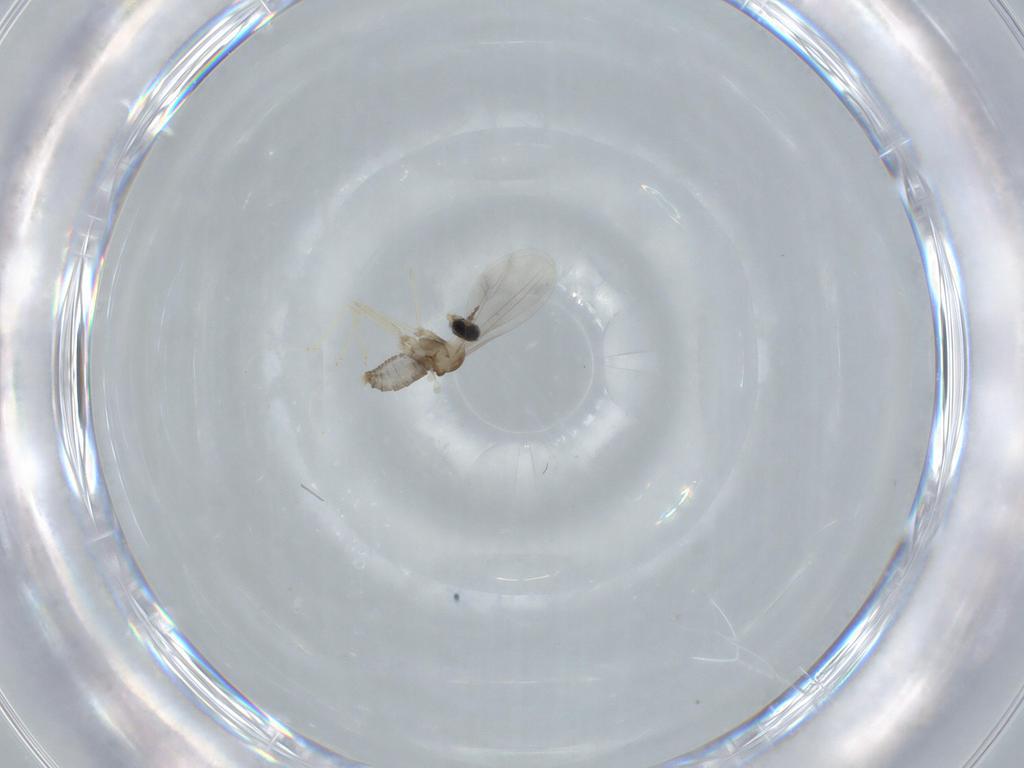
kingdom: Animalia
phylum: Arthropoda
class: Insecta
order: Diptera
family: Cecidomyiidae
